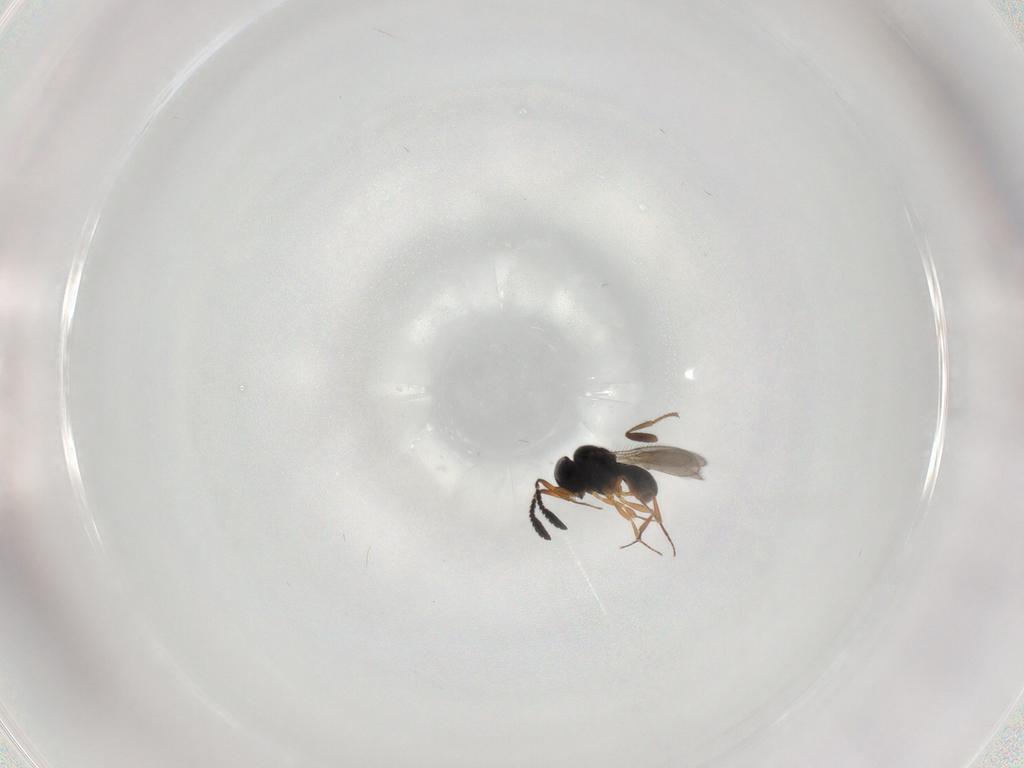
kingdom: Animalia
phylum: Arthropoda
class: Insecta
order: Hymenoptera
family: Scelionidae
